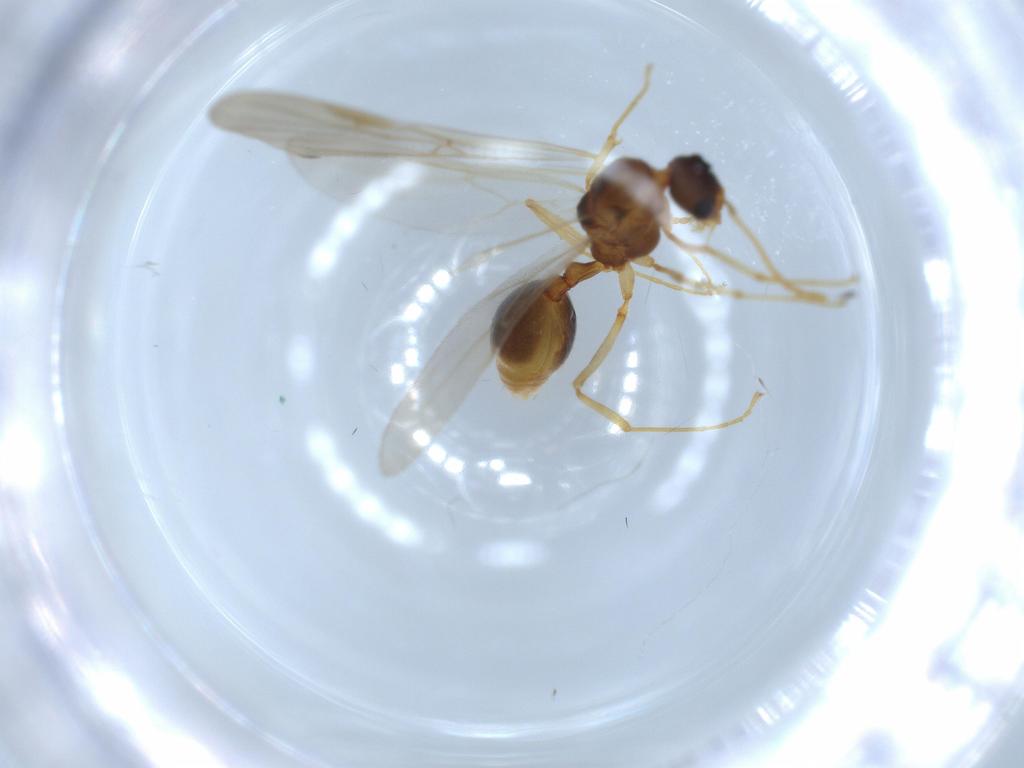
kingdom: Animalia
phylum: Arthropoda
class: Insecta
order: Hymenoptera
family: Formicidae
